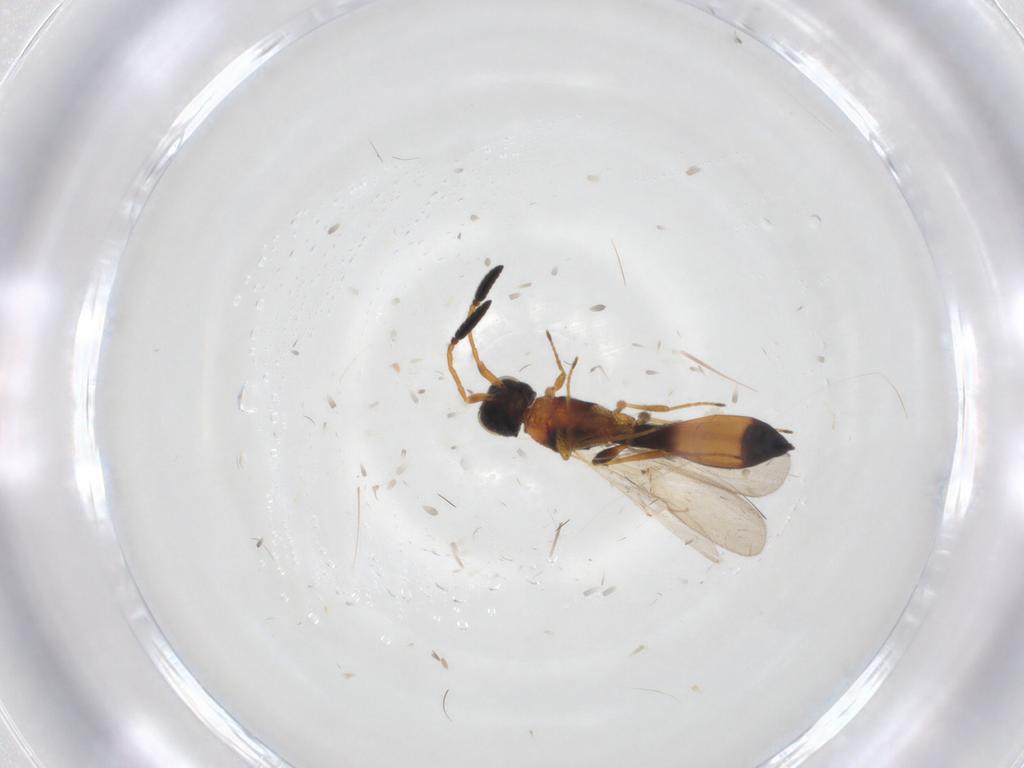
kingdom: Animalia
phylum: Arthropoda
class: Insecta
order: Hymenoptera
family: Scelionidae
